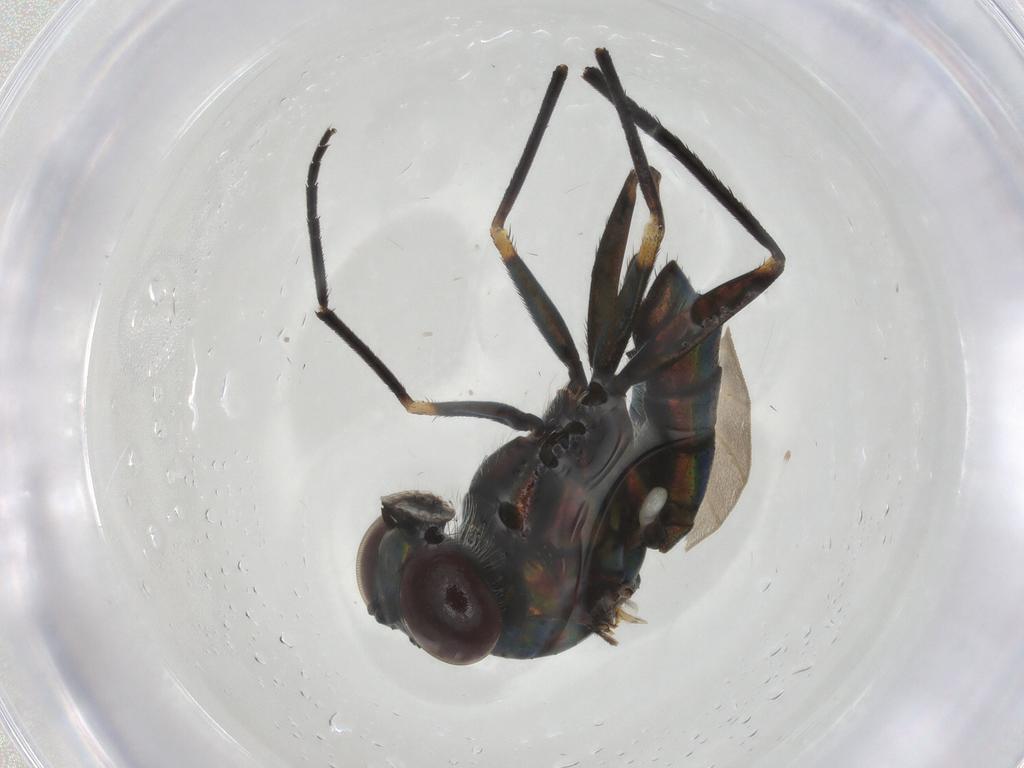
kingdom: Animalia
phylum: Arthropoda
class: Insecta
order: Diptera
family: Dolichopodidae
